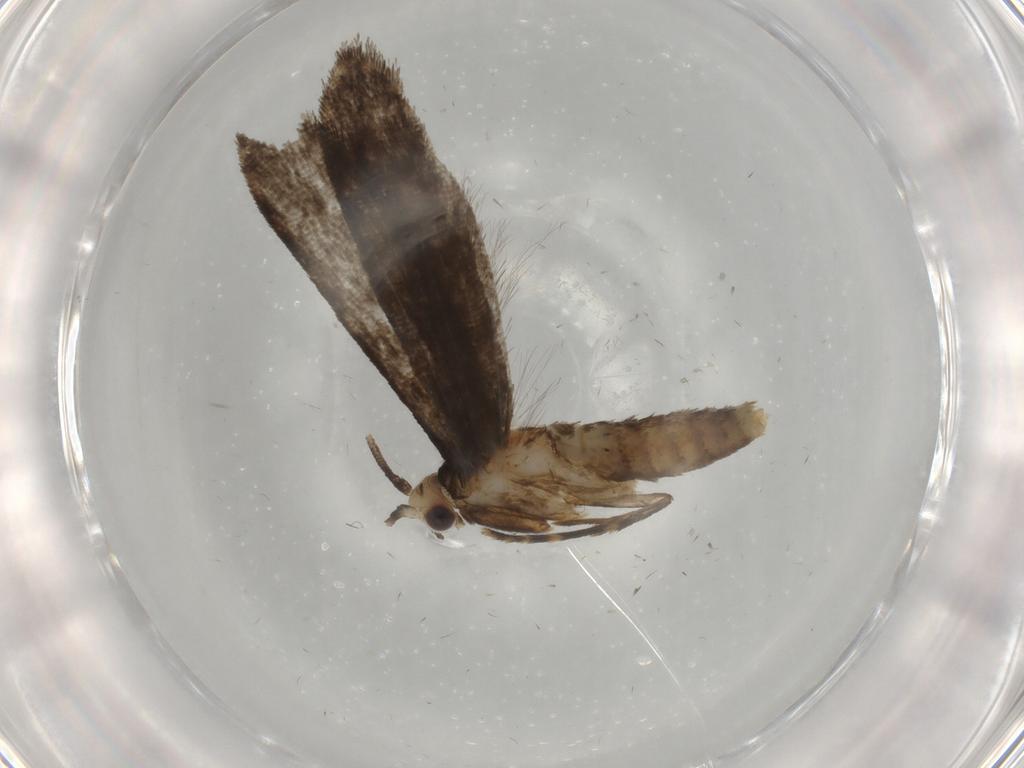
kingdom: Animalia
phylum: Arthropoda
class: Insecta
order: Lepidoptera
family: Tineidae
